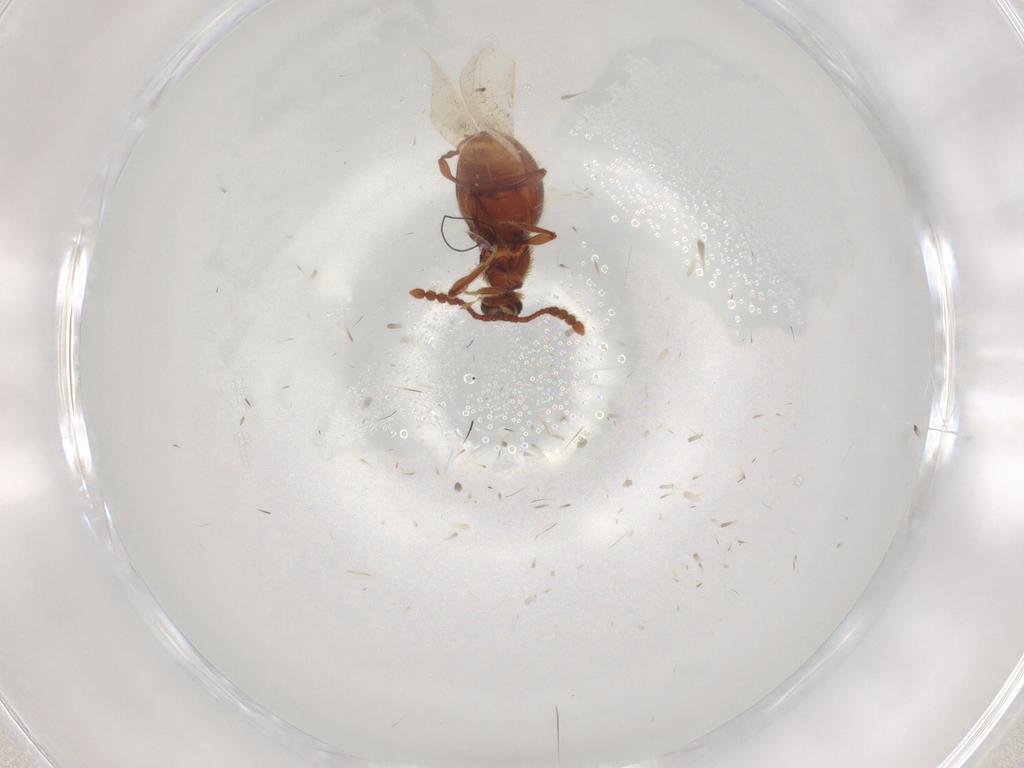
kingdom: Animalia
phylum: Arthropoda
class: Insecta
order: Coleoptera
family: Staphylinidae
